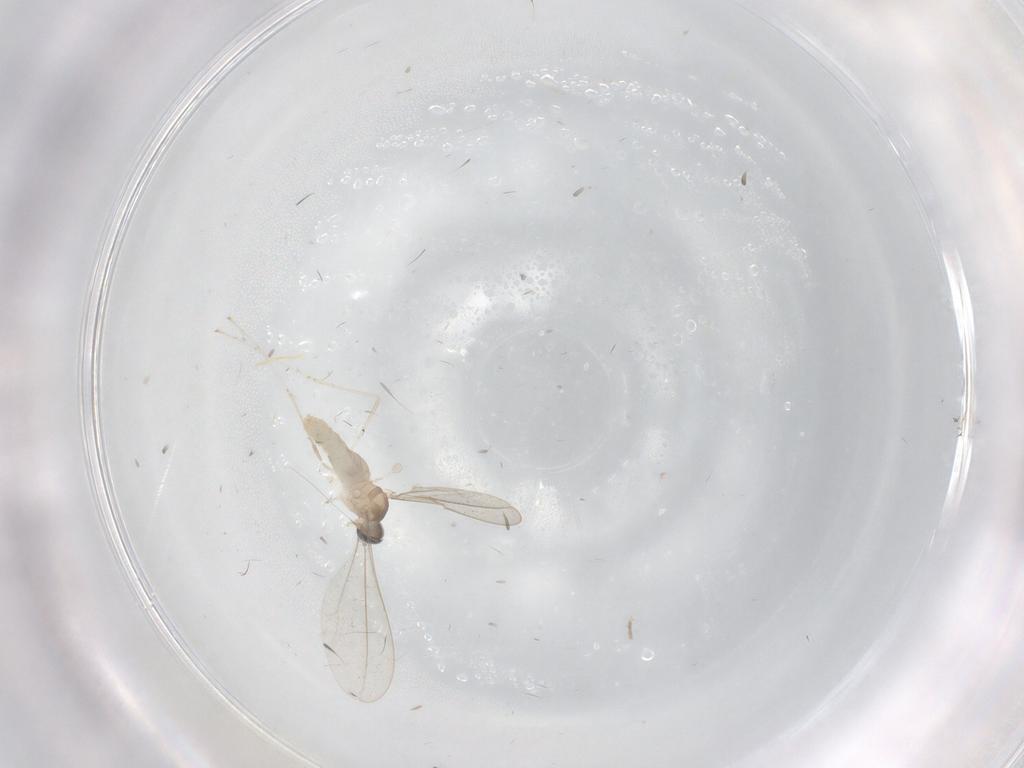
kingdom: Animalia
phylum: Arthropoda
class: Insecta
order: Diptera
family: Cecidomyiidae
